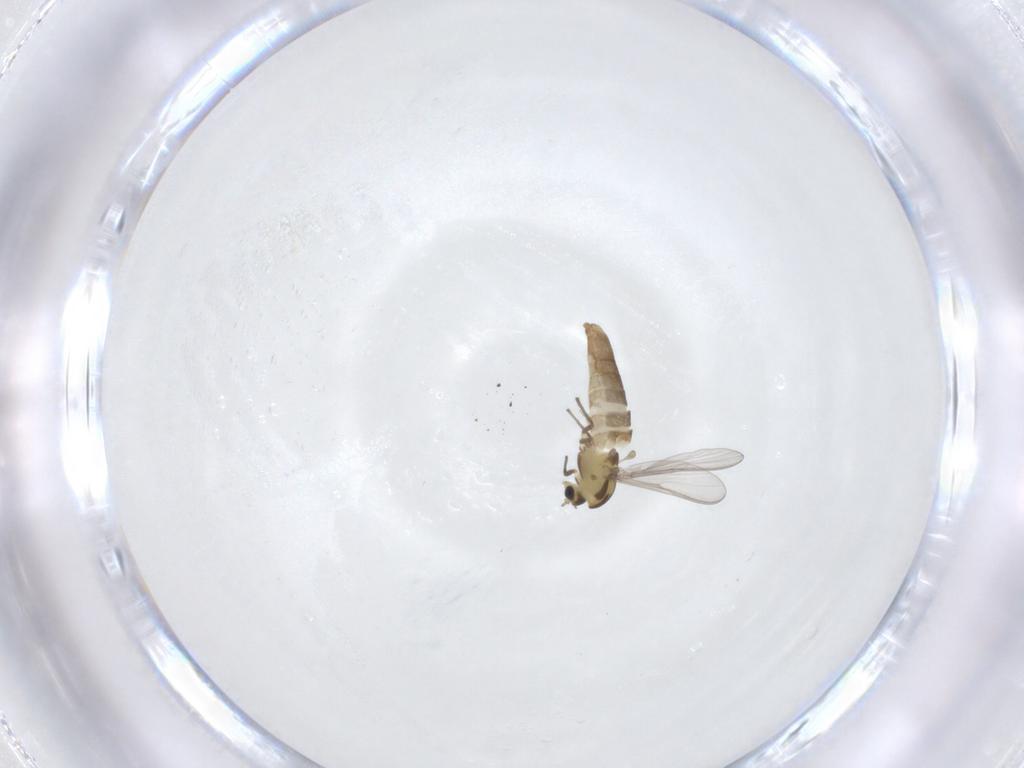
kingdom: Animalia
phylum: Arthropoda
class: Insecta
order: Diptera
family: Psychodidae
